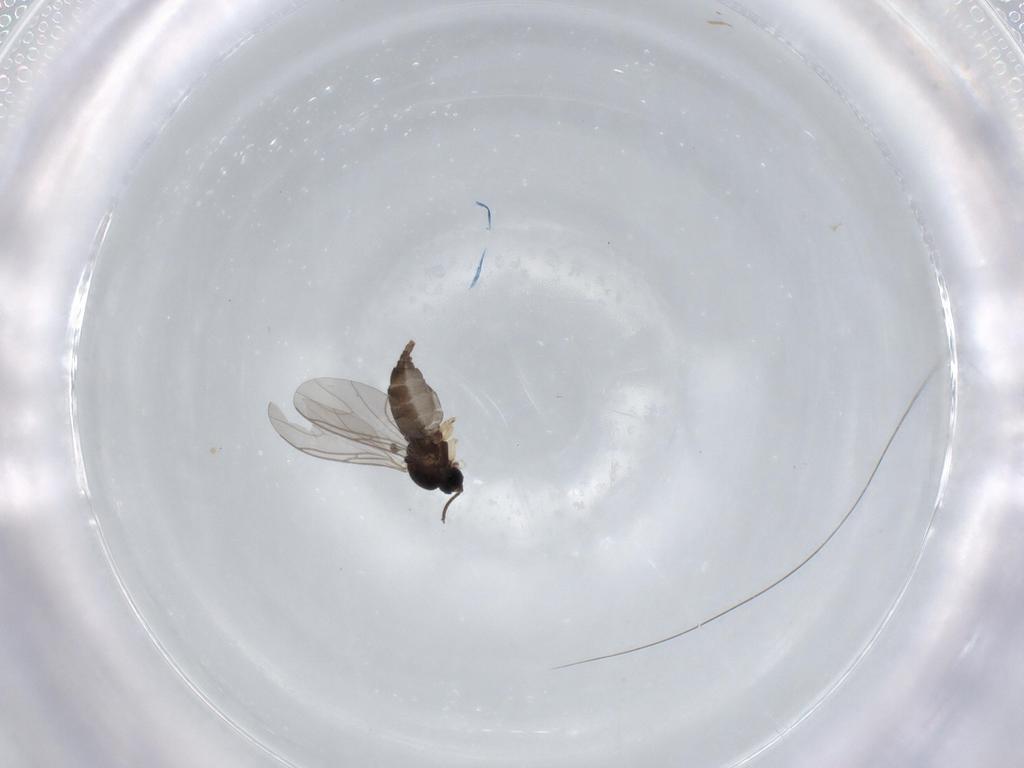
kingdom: Animalia
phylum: Arthropoda
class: Insecta
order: Diptera
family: Sciaridae
